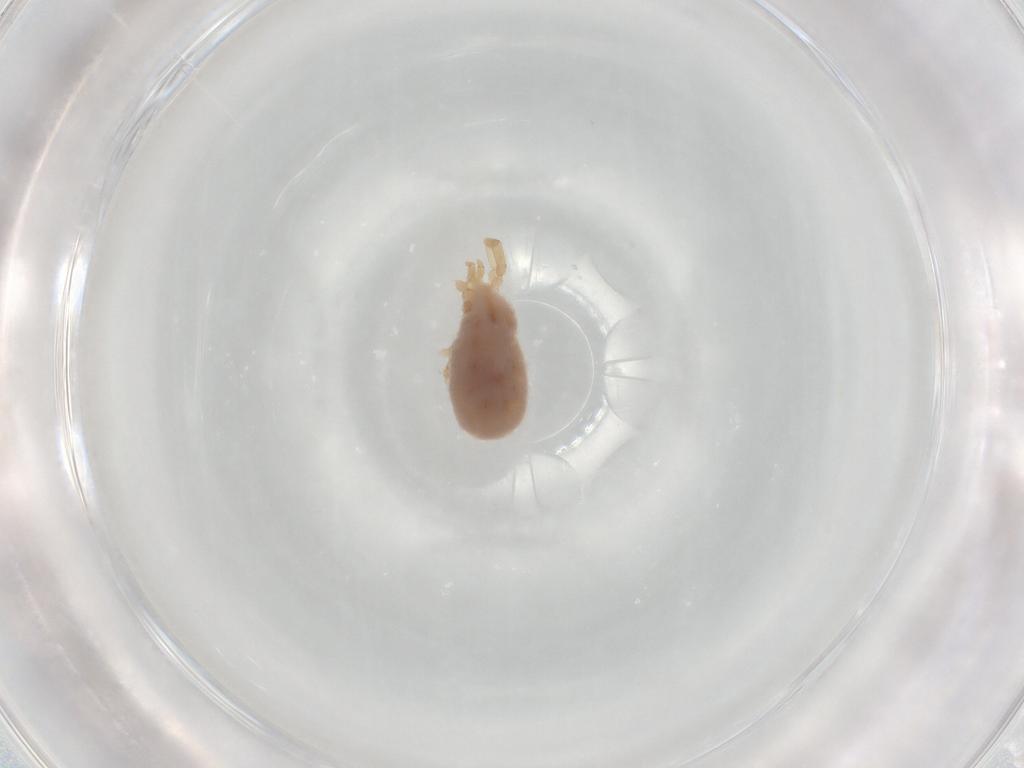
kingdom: Animalia
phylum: Arthropoda
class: Arachnida
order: Trombidiformes
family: Erythraeidae
